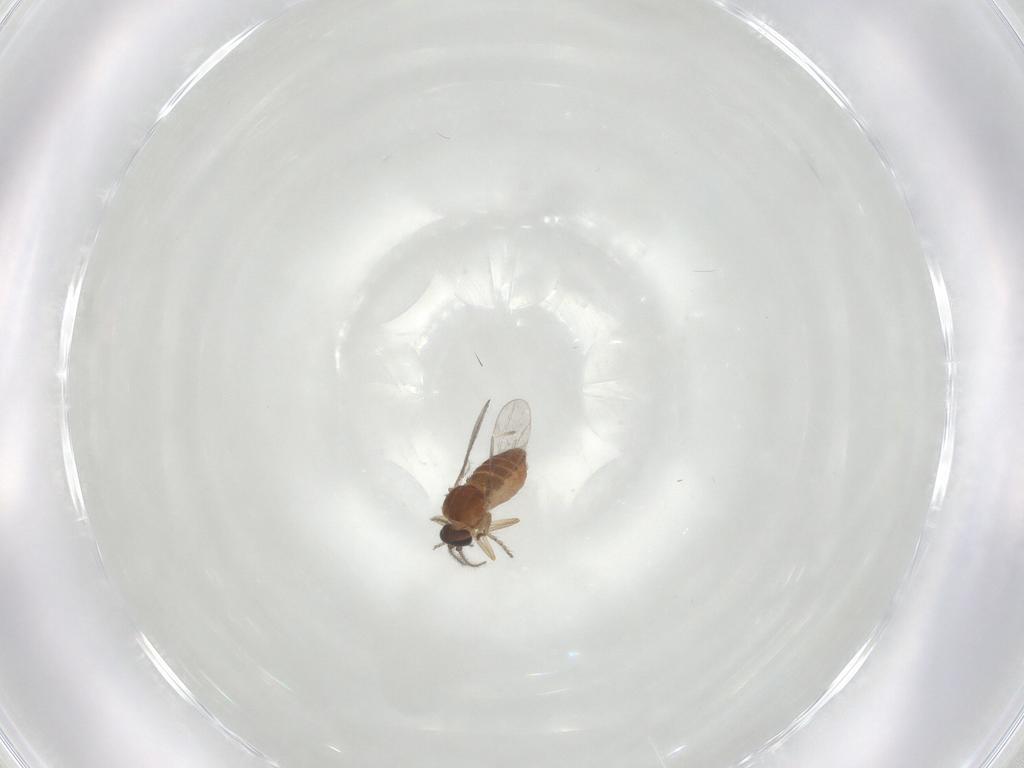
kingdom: Animalia
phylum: Arthropoda
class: Insecta
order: Diptera
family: Ceratopogonidae
